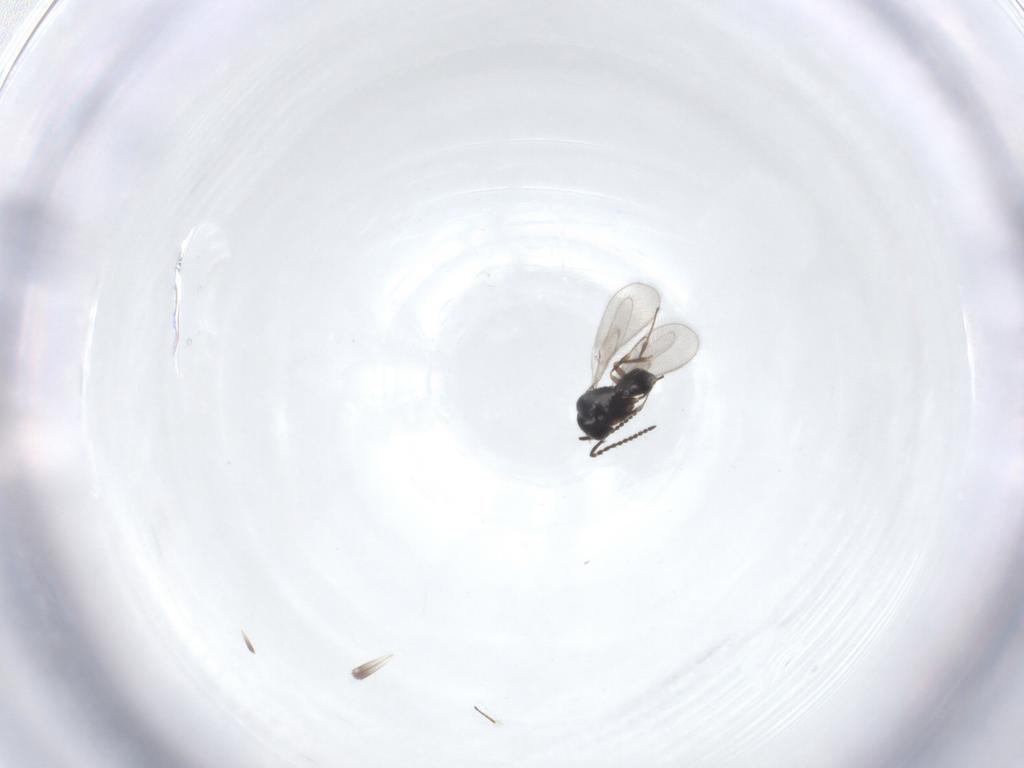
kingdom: Animalia
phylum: Arthropoda
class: Insecta
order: Hymenoptera
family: Scelionidae
